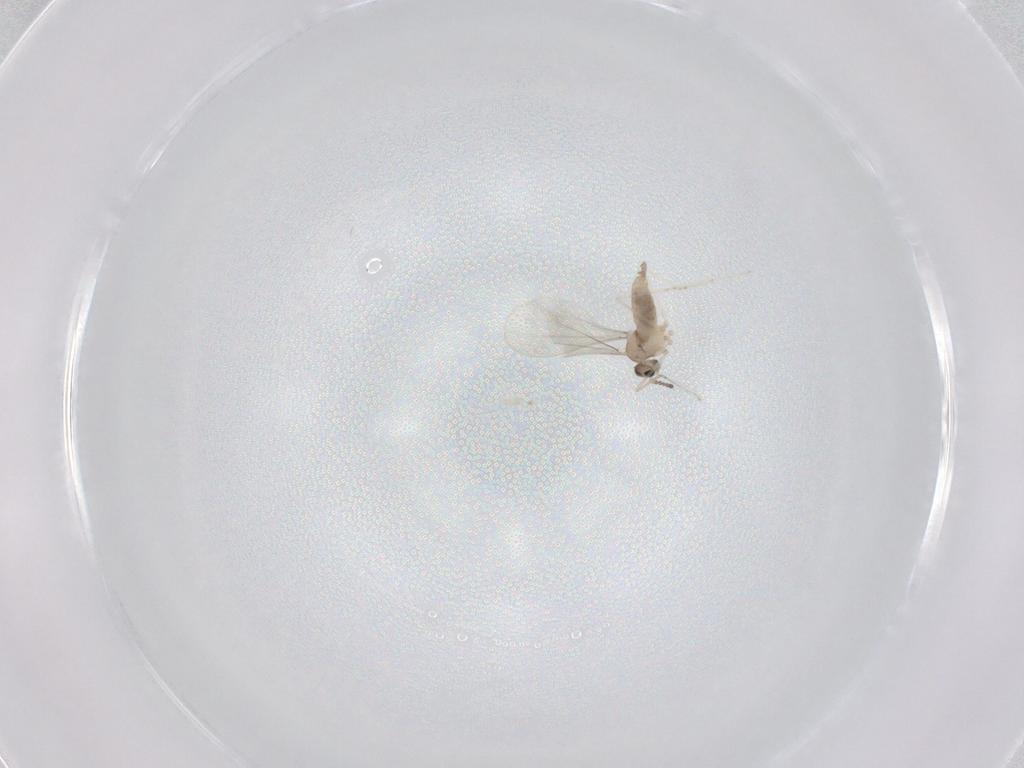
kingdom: Animalia
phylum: Arthropoda
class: Insecta
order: Diptera
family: Cecidomyiidae
